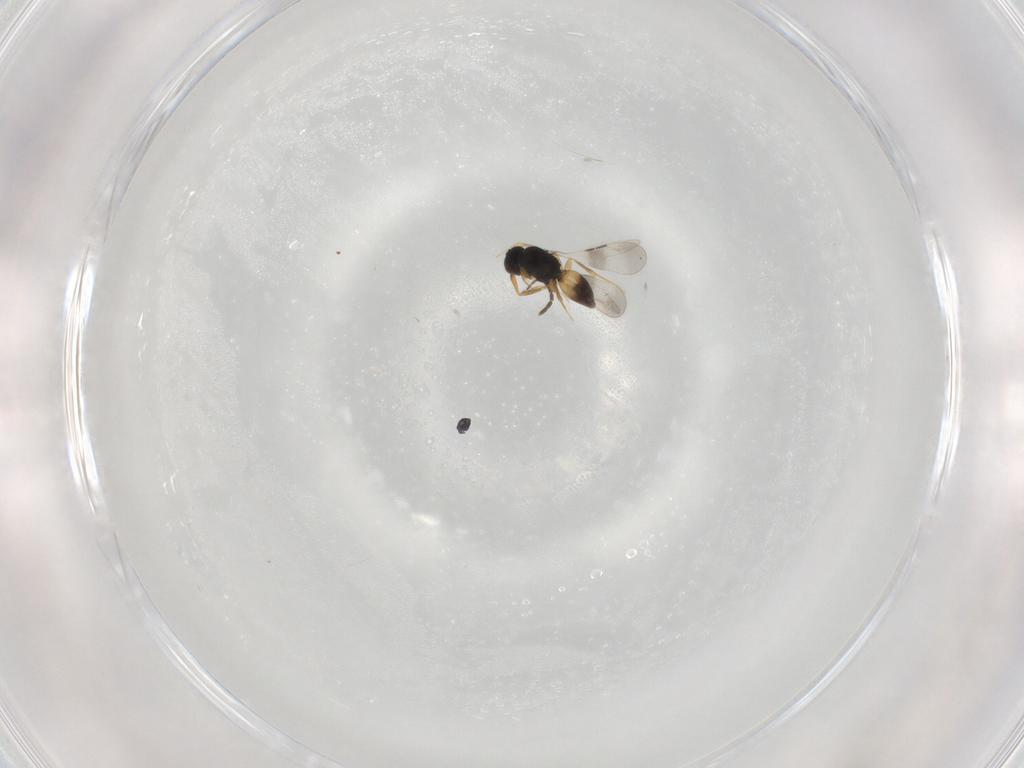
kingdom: Animalia
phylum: Arthropoda
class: Insecta
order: Hymenoptera
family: Ceraphronidae
